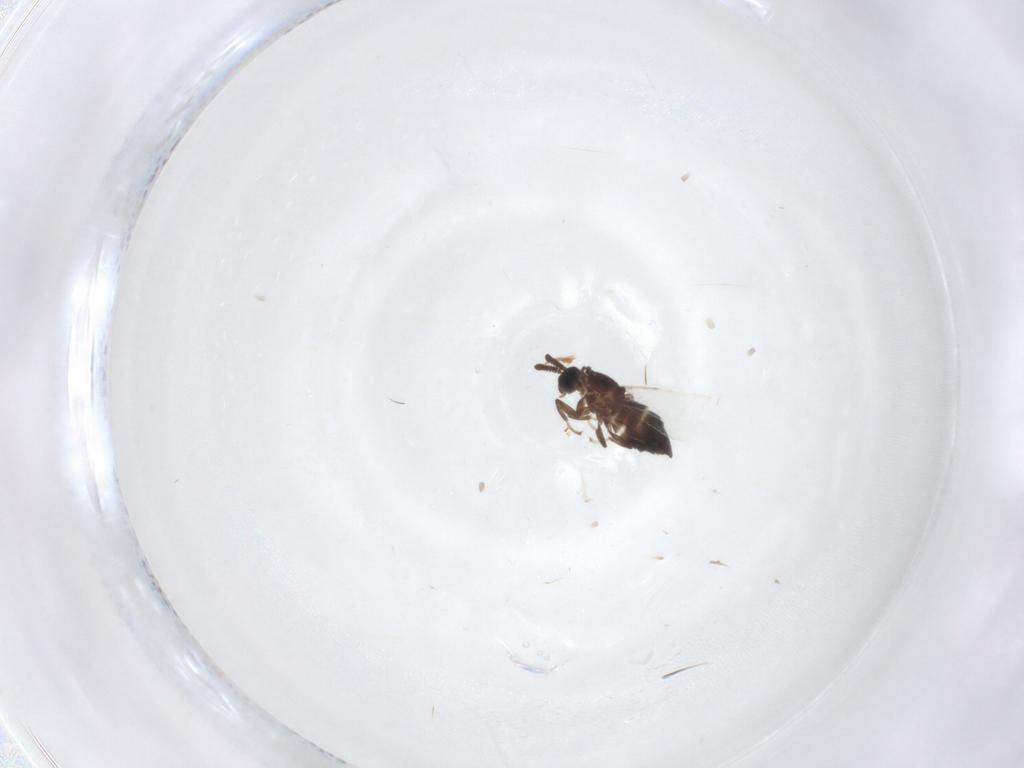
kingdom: Animalia
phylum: Arthropoda
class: Insecta
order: Diptera
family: Scatopsidae
